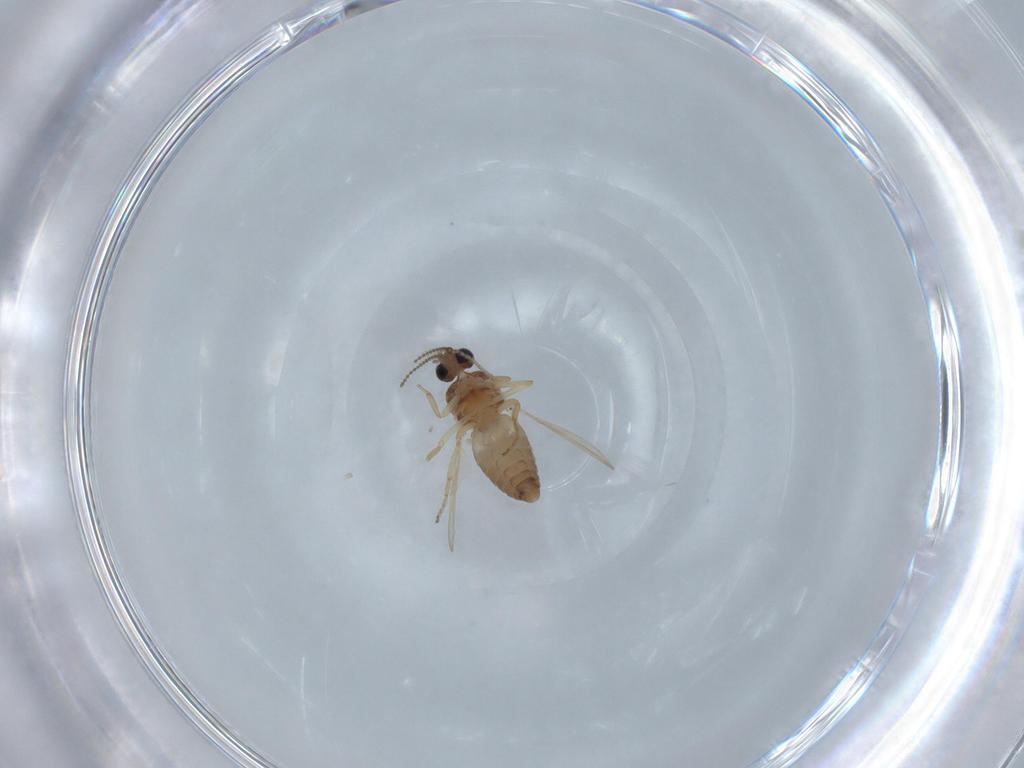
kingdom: Animalia
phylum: Arthropoda
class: Insecta
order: Diptera
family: Ceratopogonidae
